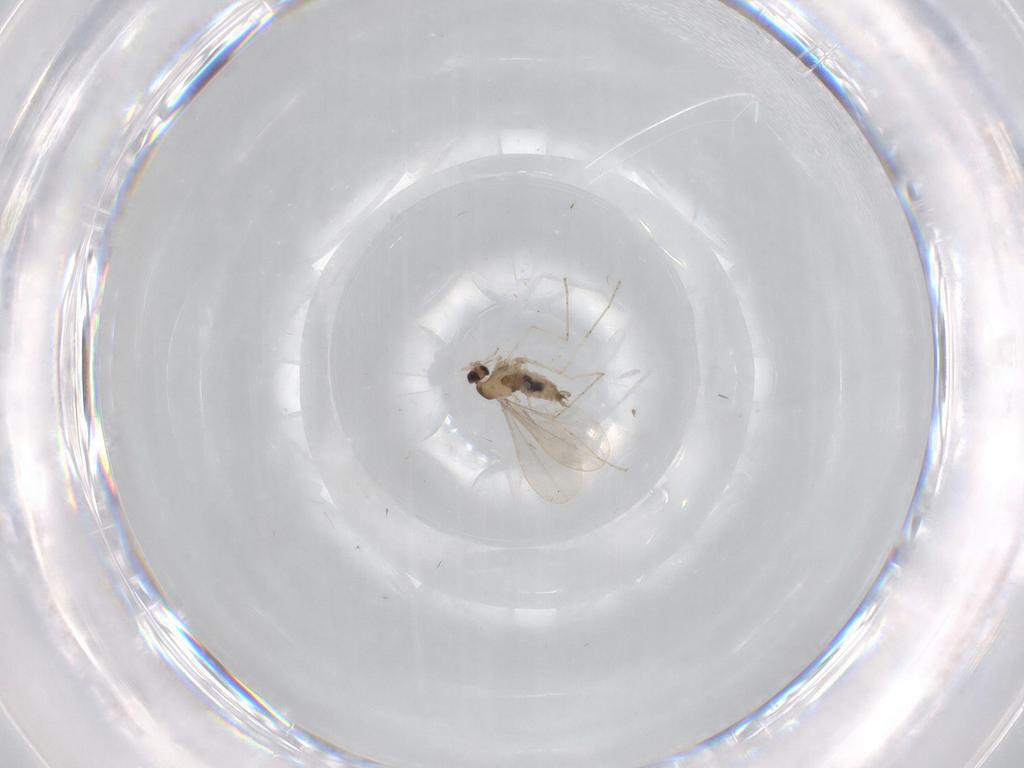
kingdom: Animalia
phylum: Arthropoda
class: Insecta
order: Diptera
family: Cecidomyiidae
